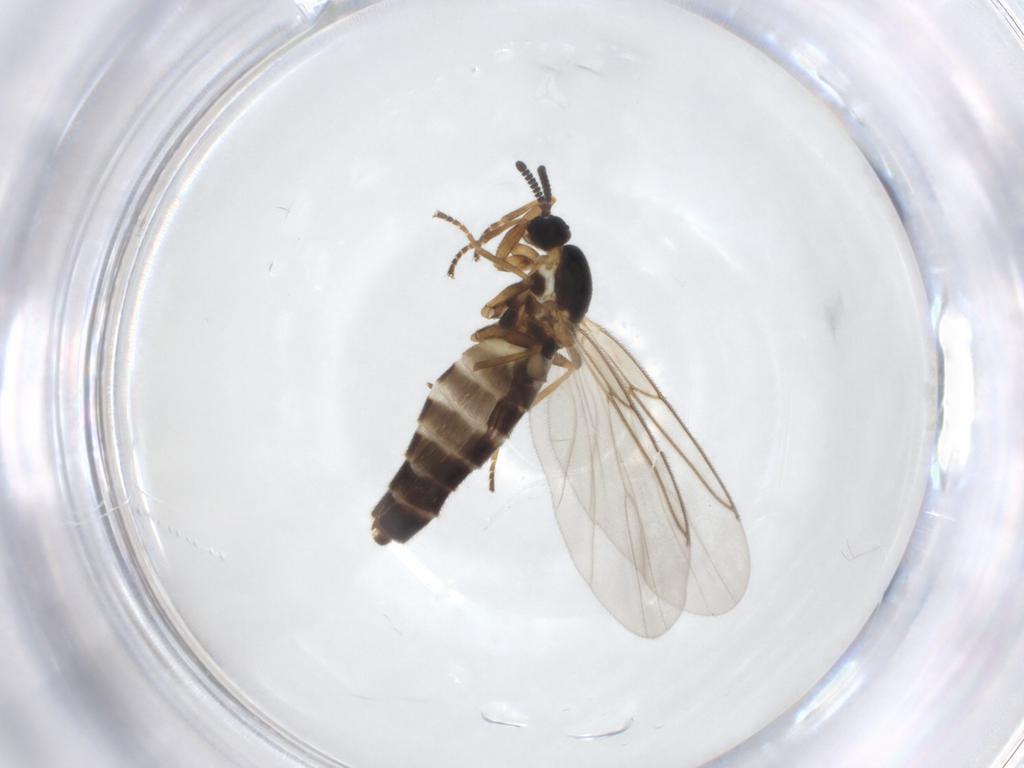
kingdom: Animalia
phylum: Arthropoda
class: Insecta
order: Diptera
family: Scatopsidae
